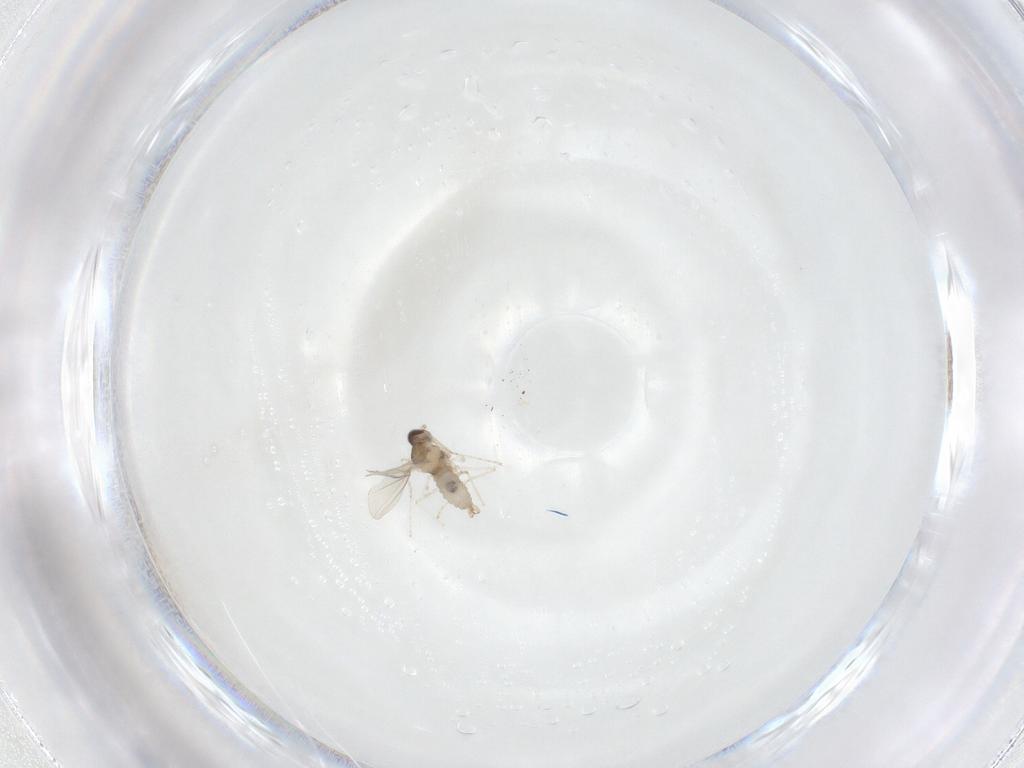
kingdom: Animalia
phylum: Arthropoda
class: Insecta
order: Diptera
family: Cecidomyiidae
